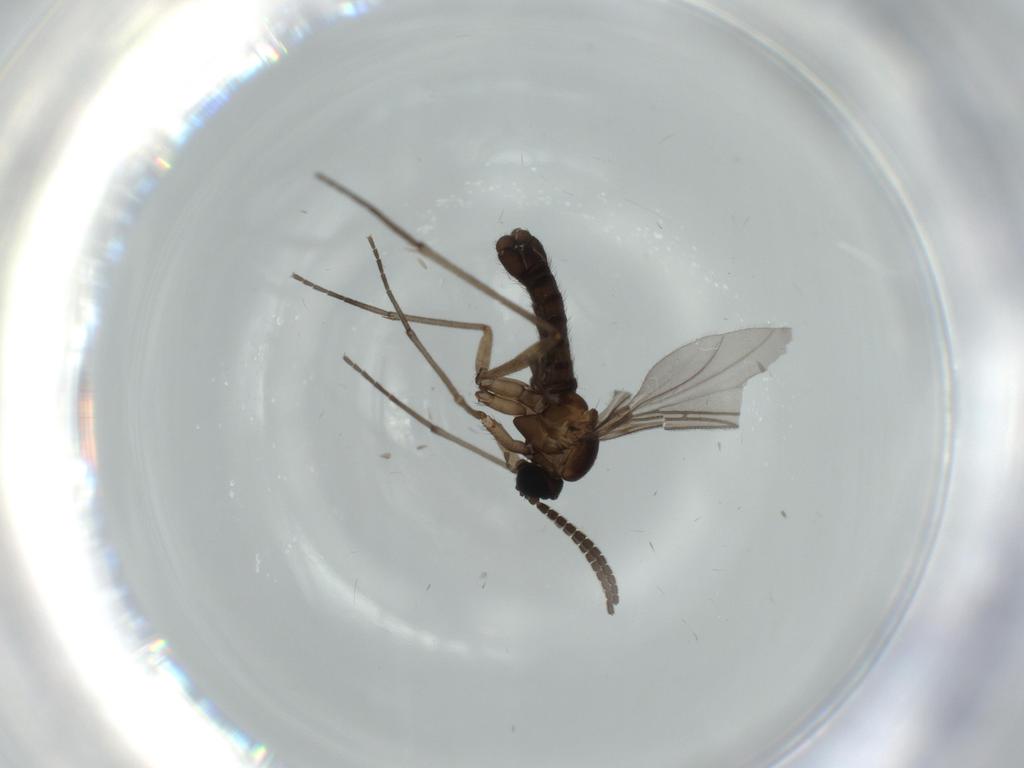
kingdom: Animalia
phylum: Arthropoda
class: Insecta
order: Diptera
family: Sciaridae
